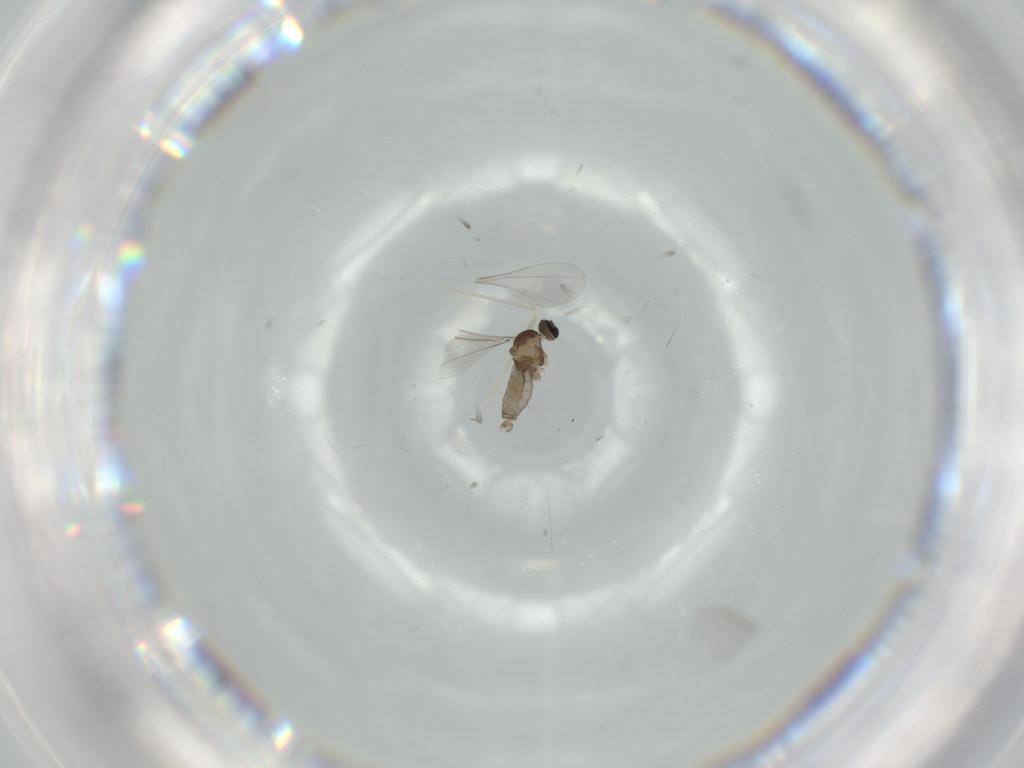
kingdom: Animalia
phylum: Arthropoda
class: Insecta
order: Diptera
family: Cecidomyiidae
